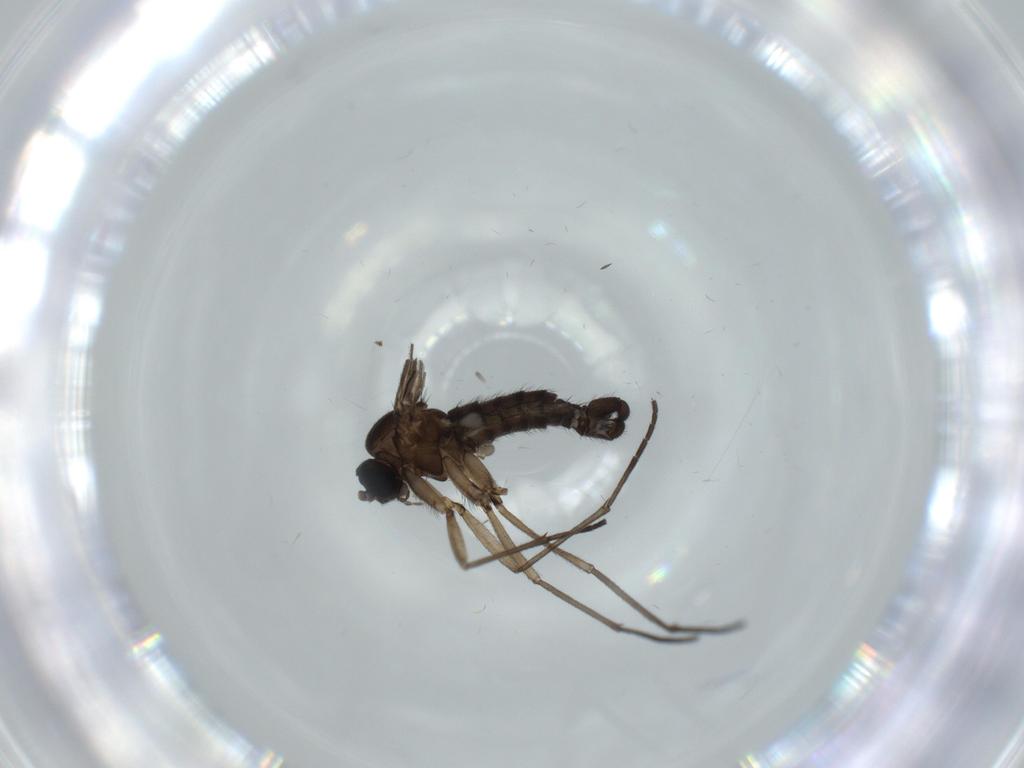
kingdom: Animalia
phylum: Arthropoda
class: Insecta
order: Diptera
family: Sciaridae
